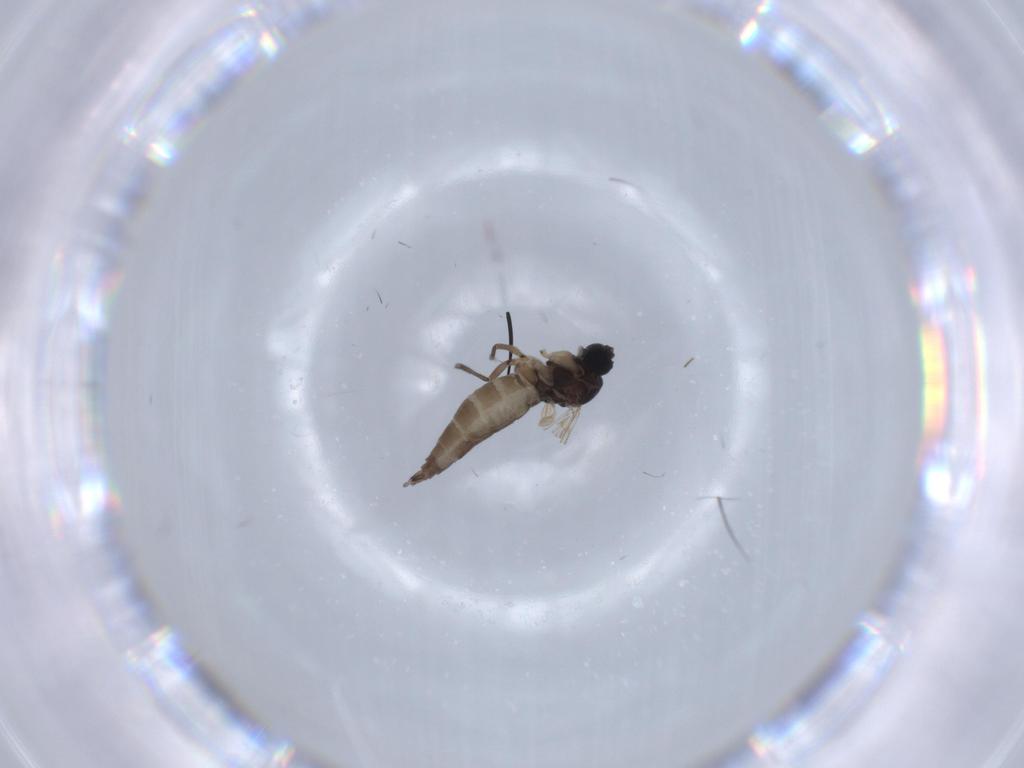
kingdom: Animalia
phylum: Arthropoda
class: Insecta
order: Diptera
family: Sciaridae
